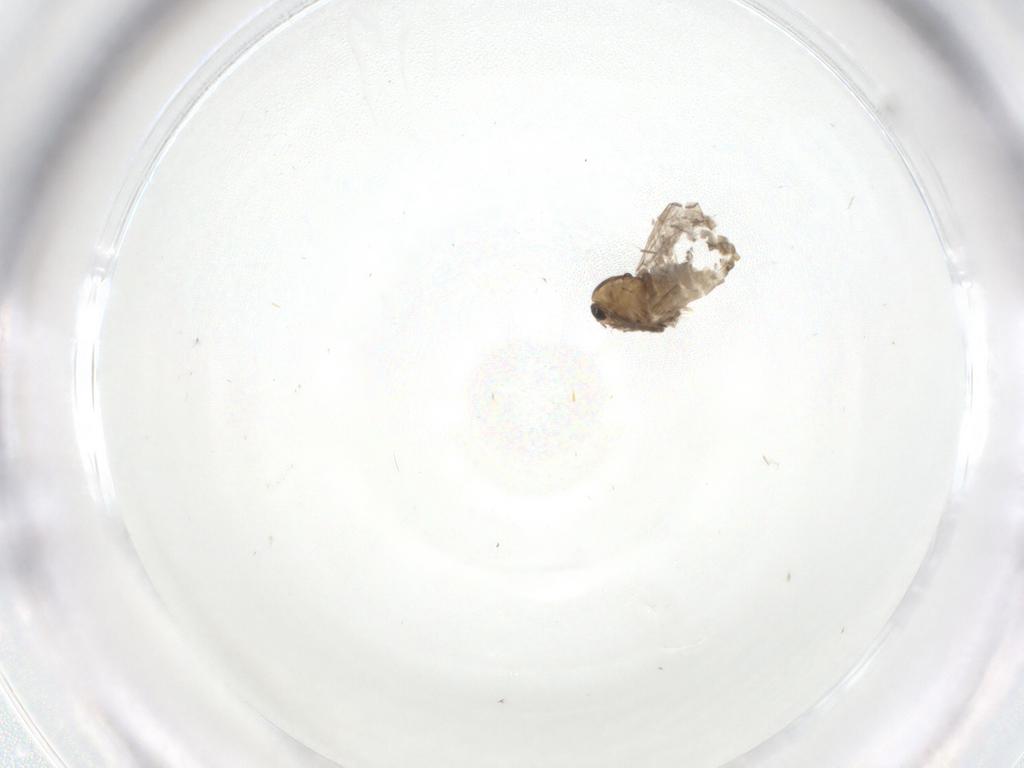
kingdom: Animalia
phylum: Arthropoda
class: Insecta
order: Diptera
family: Chironomidae
